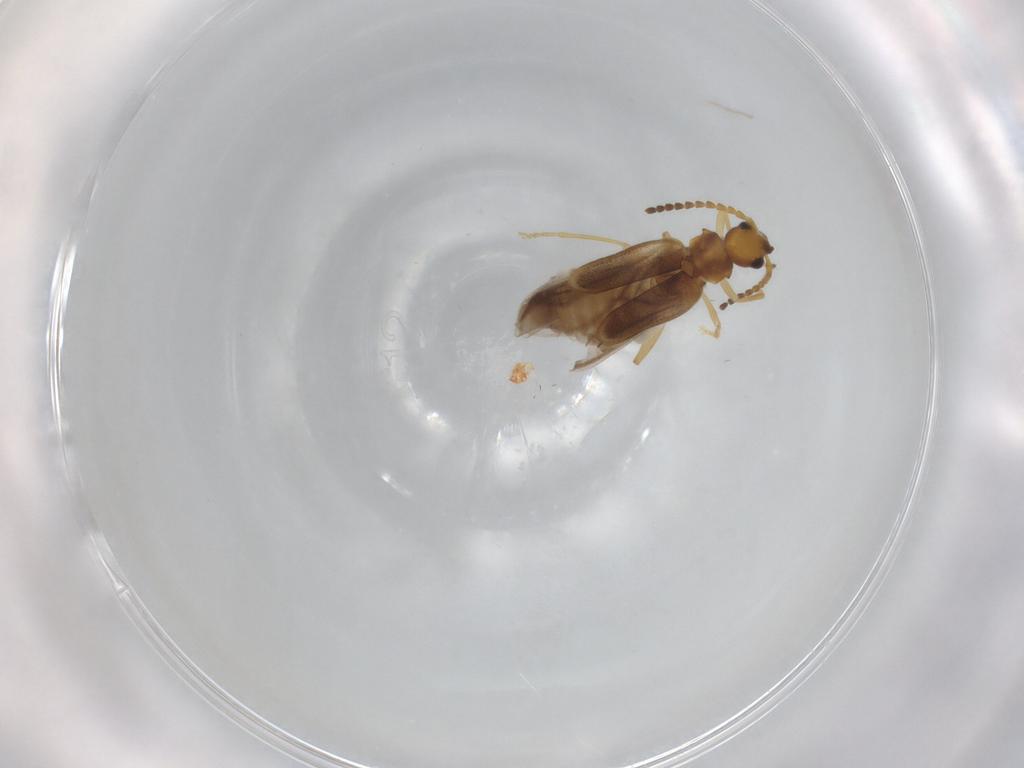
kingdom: Animalia
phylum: Arthropoda
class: Insecta
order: Coleoptera
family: Cantharidae
